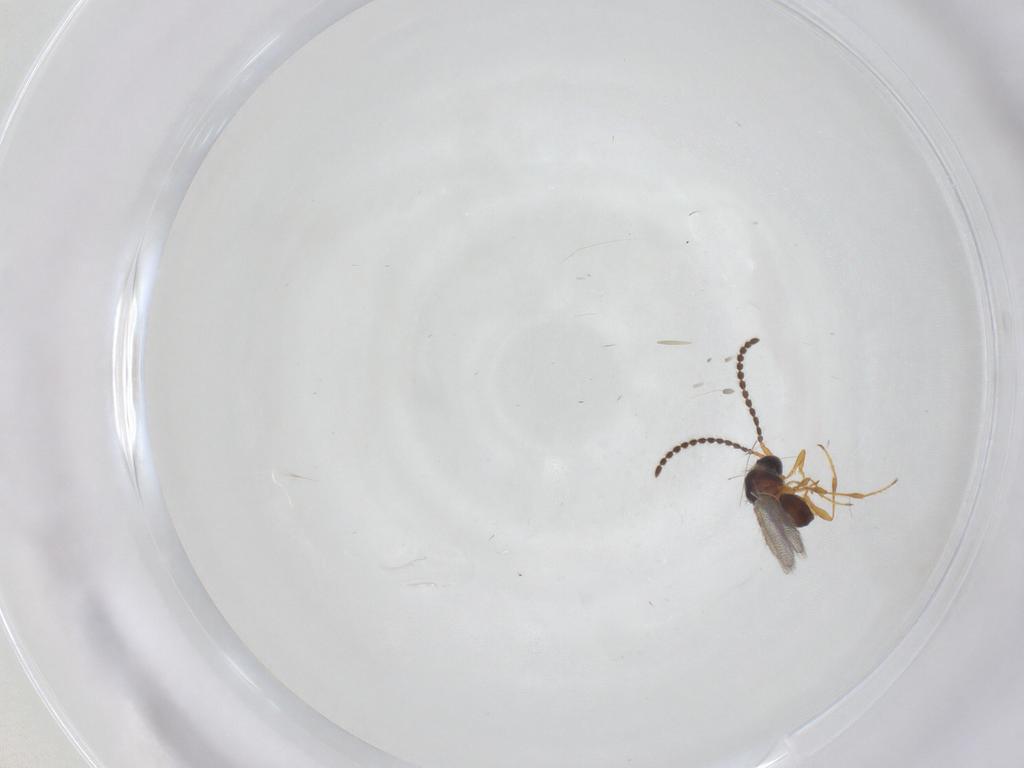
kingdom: Animalia
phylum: Arthropoda
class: Insecta
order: Hymenoptera
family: Diapriidae
